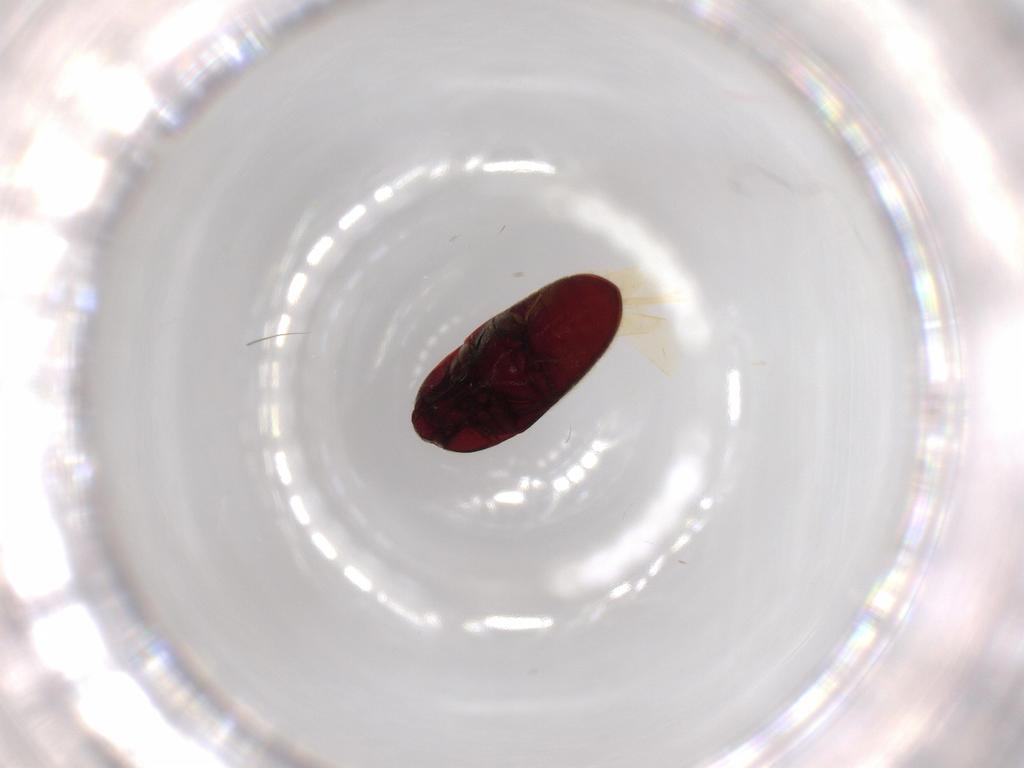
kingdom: Animalia
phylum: Arthropoda
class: Insecta
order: Coleoptera
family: Throscidae
